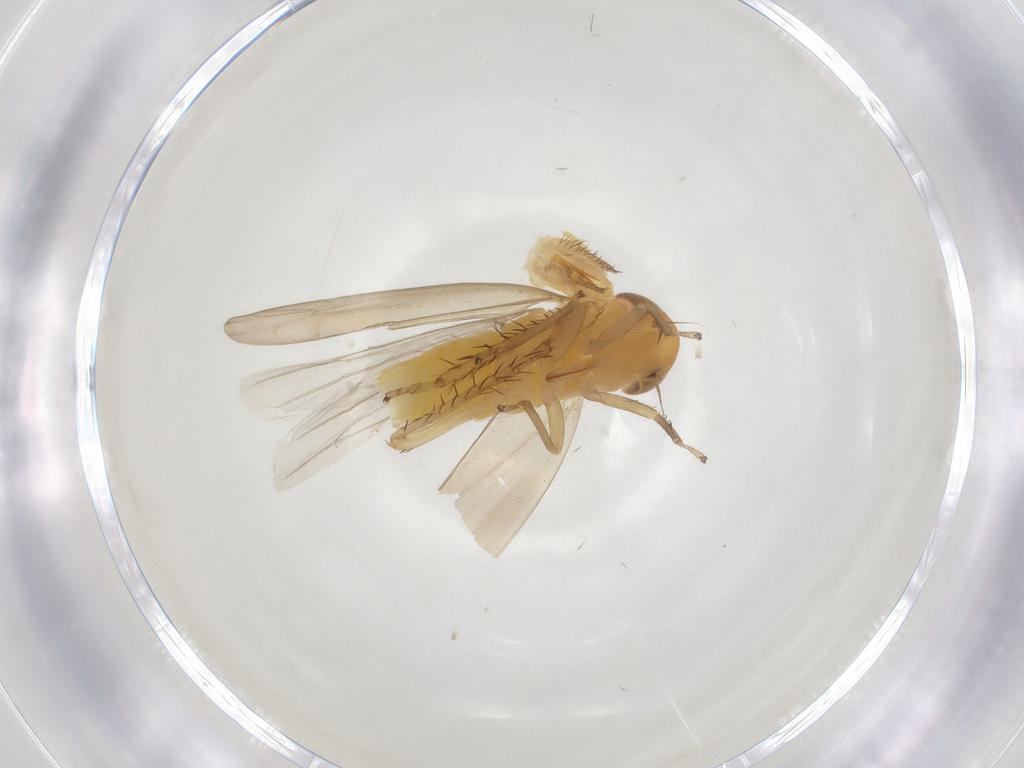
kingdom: Animalia
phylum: Arthropoda
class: Insecta
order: Hemiptera
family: Cicadellidae
